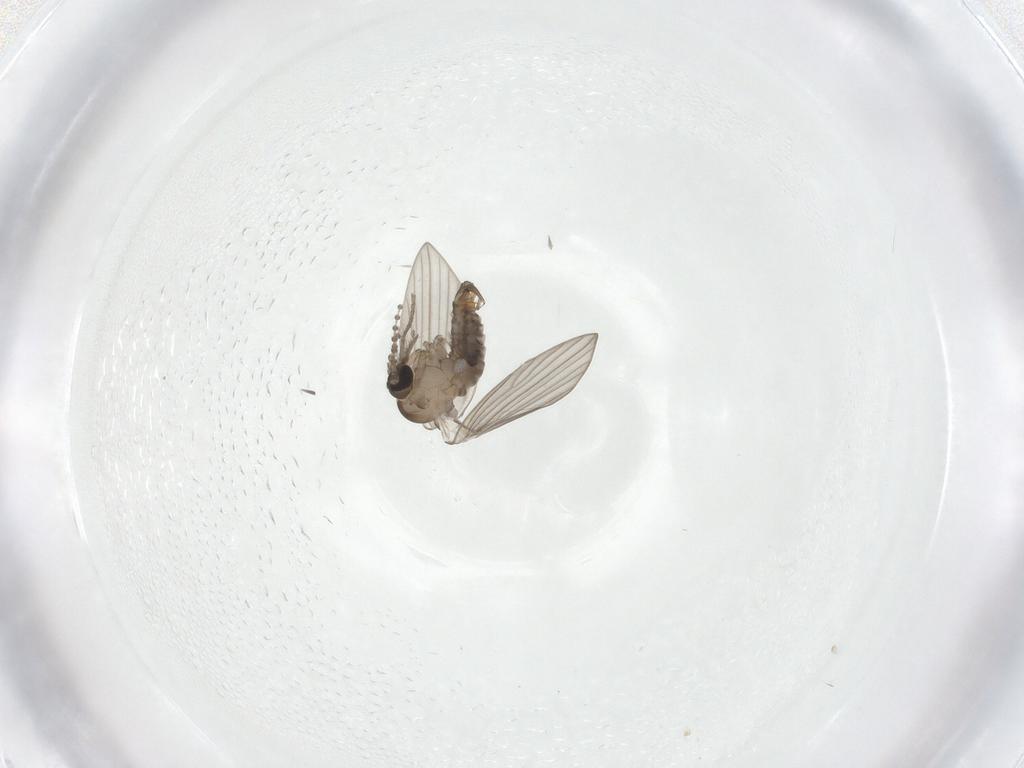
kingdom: Animalia
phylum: Arthropoda
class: Insecta
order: Diptera
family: Psychodidae
